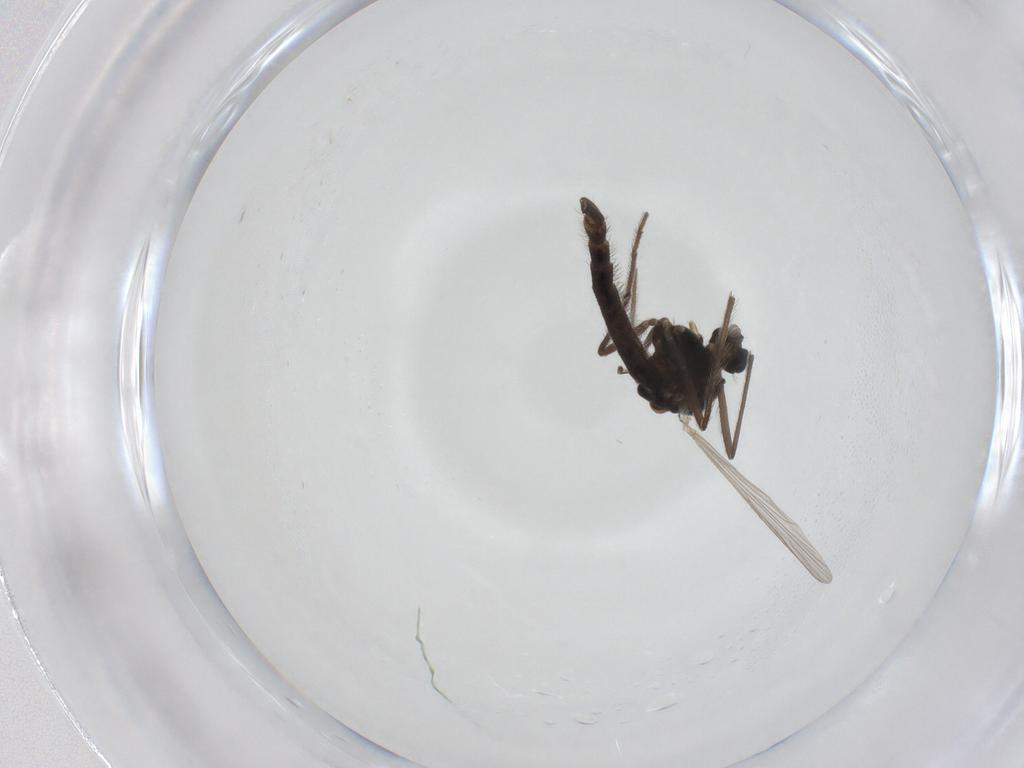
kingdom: Animalia
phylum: Arthropoda
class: Insecta
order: Diptera
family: Chironomidae
